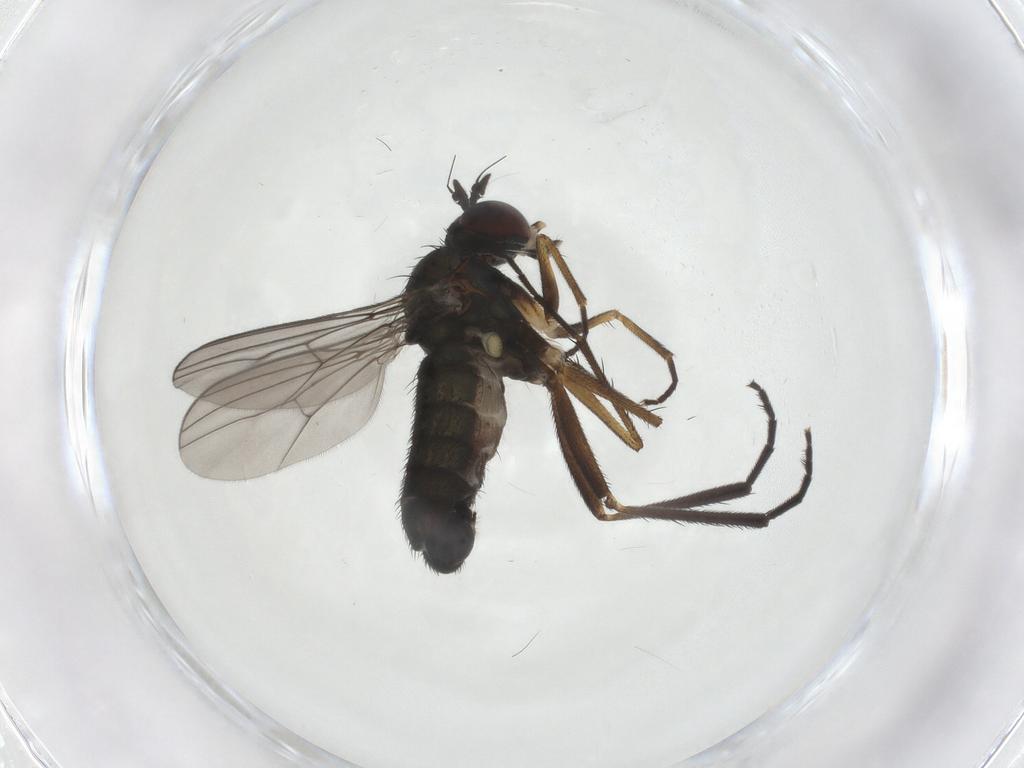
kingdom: Animalia
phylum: Arthropoda
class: Insecta
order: Diptera
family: Dolichopodidae
